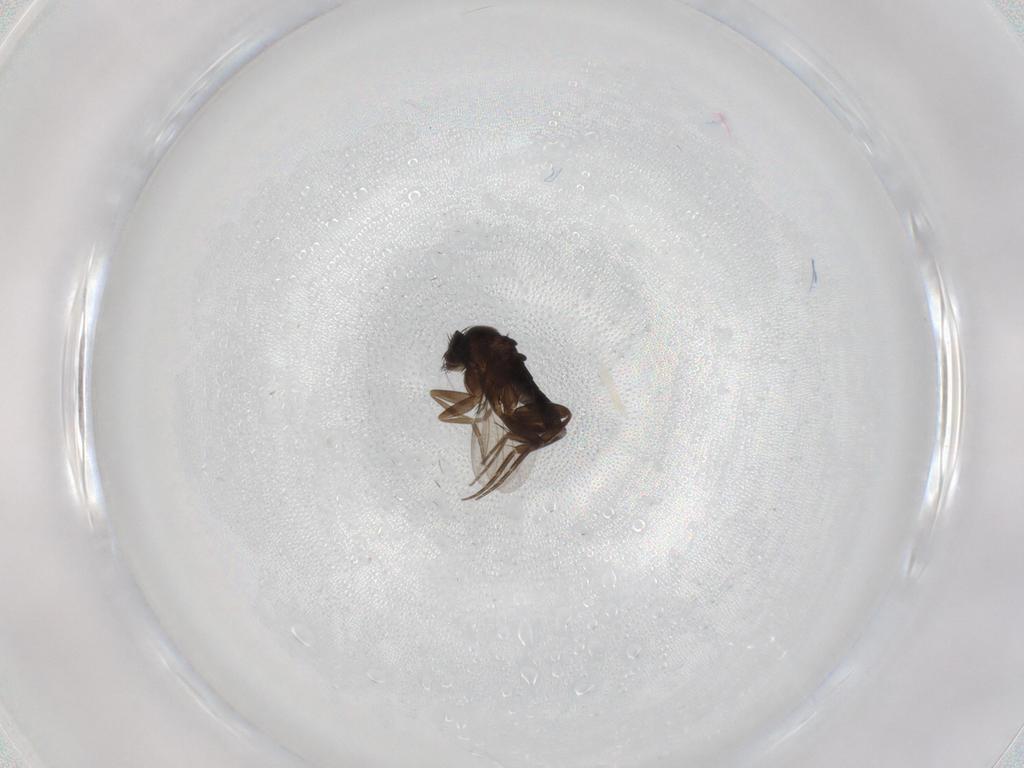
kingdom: Animalia
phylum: Arthropoda
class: Insecta
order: Diptera
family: Phoridae
